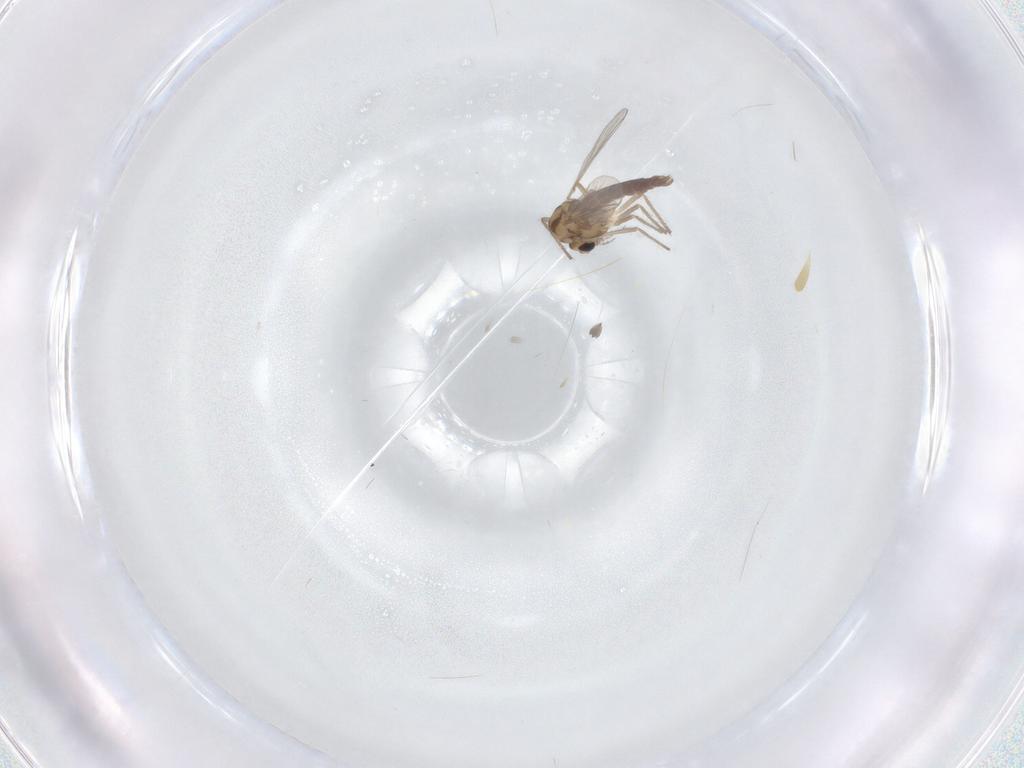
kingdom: Animalia
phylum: Arthropoda
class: Insecta
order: Diptera
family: Chironomidae
